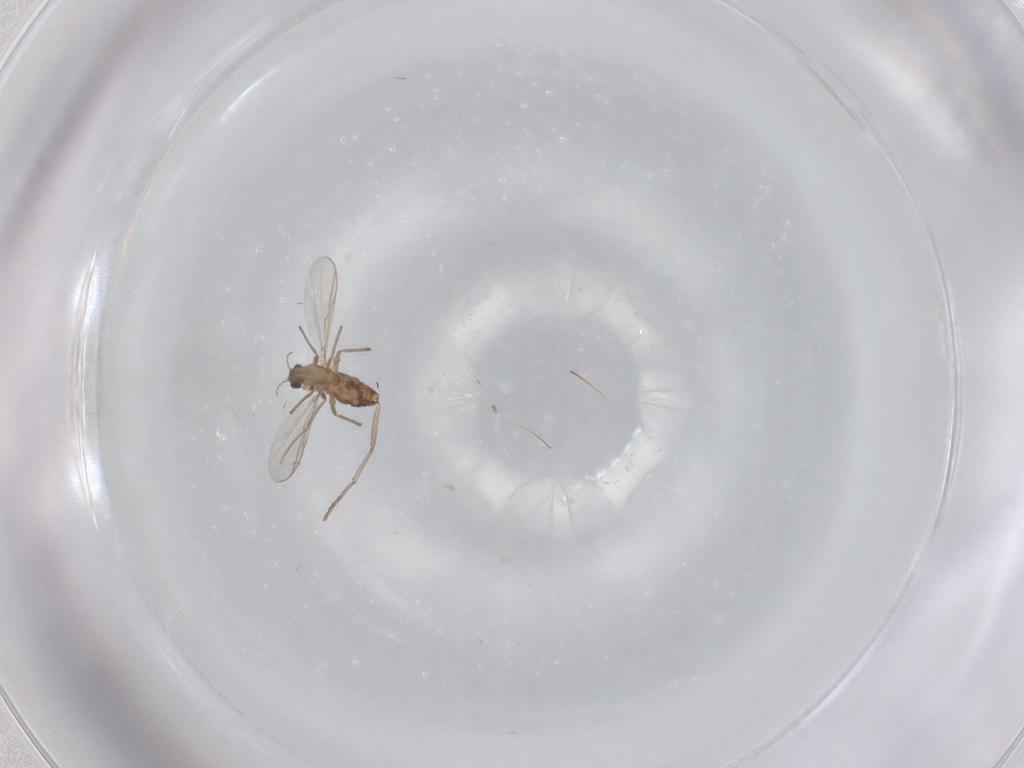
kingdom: Animalia
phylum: Arthropoda
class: Insecta
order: Diptera
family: Chironomidae
